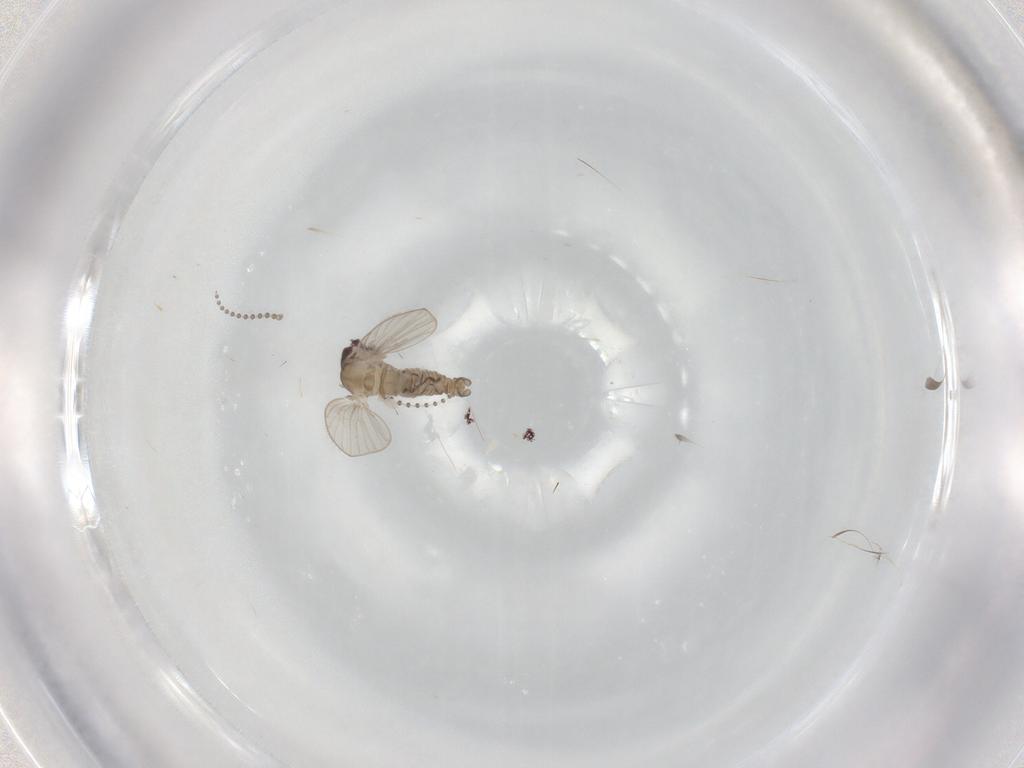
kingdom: Animalia
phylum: Arthropoda
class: Insecta
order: Diptera
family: Psychodidae
